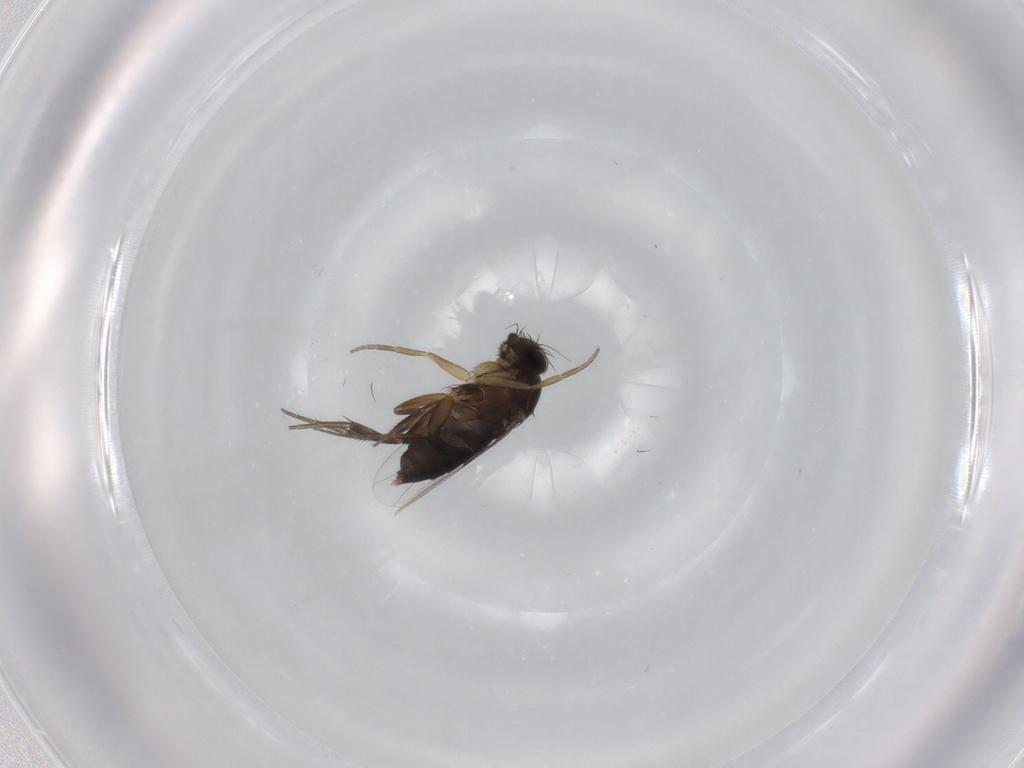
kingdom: Animalia
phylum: Arthropoda
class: Insecta
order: Diptera
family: Phoridae
